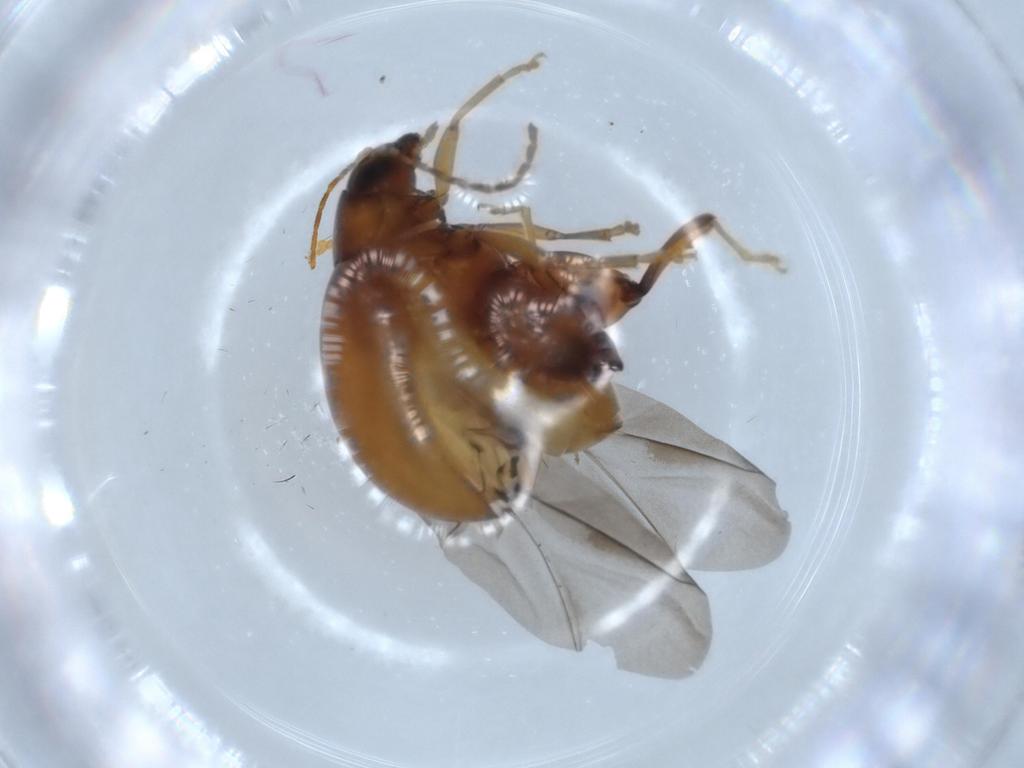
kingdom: Animalia
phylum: Arthropoda
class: Insecta
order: Coleoptera
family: Chrysomelidae
